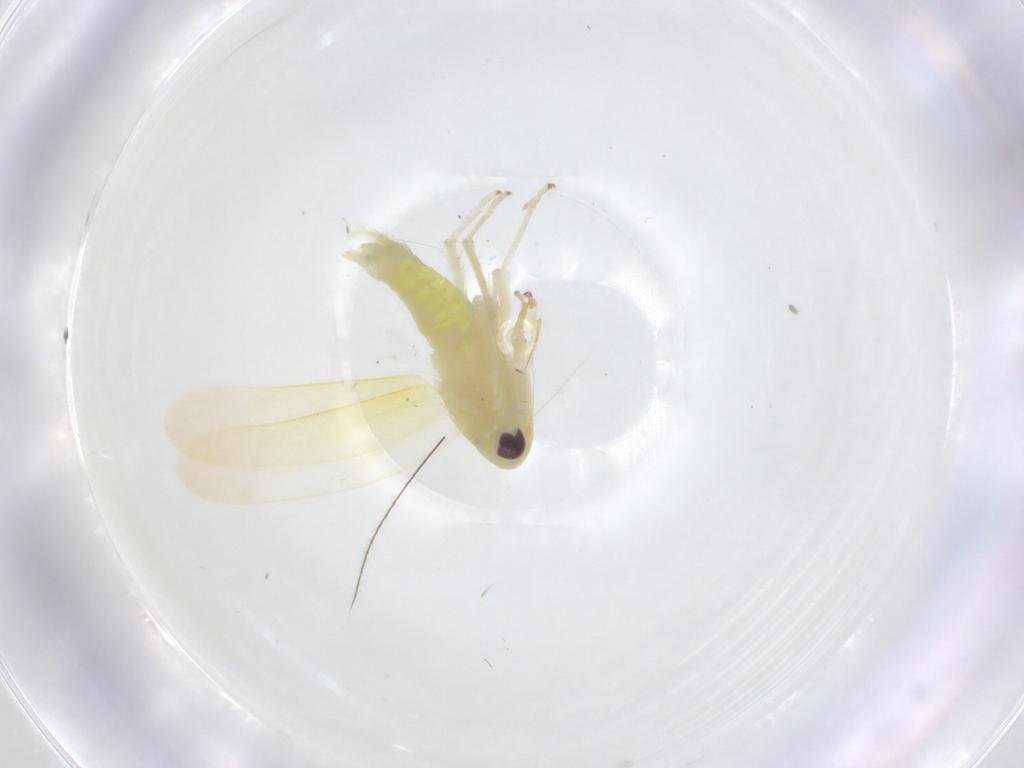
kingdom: Animalia
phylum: Arthropoda
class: Insecta
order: Hemiptera
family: Cicadellidae
